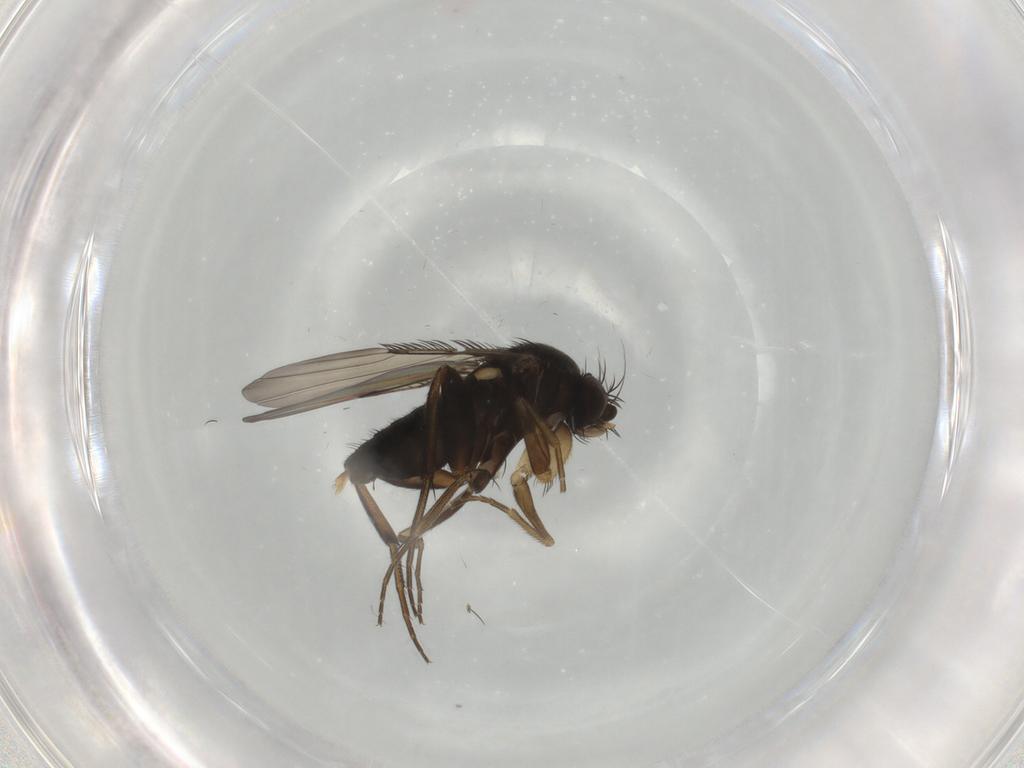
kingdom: Animalia
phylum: Arthropoda
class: Insecta
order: Diptera
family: Phoridae
